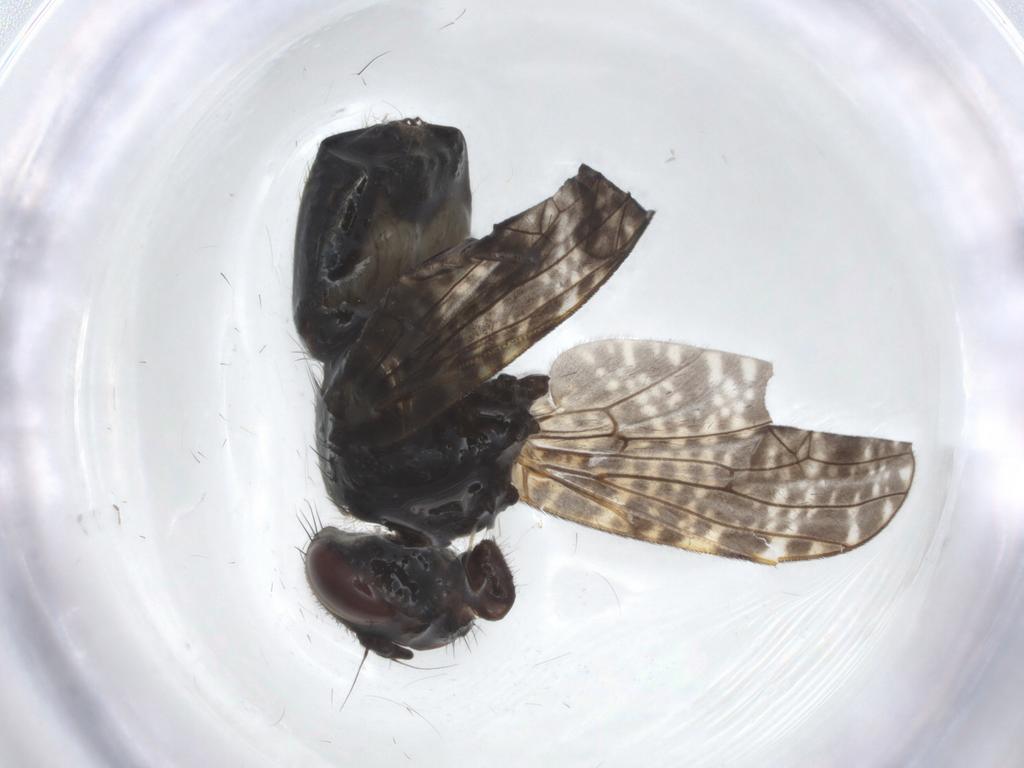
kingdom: Animalia
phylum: Arthropoda
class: Insecta
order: Diptera
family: Platystomatidae
